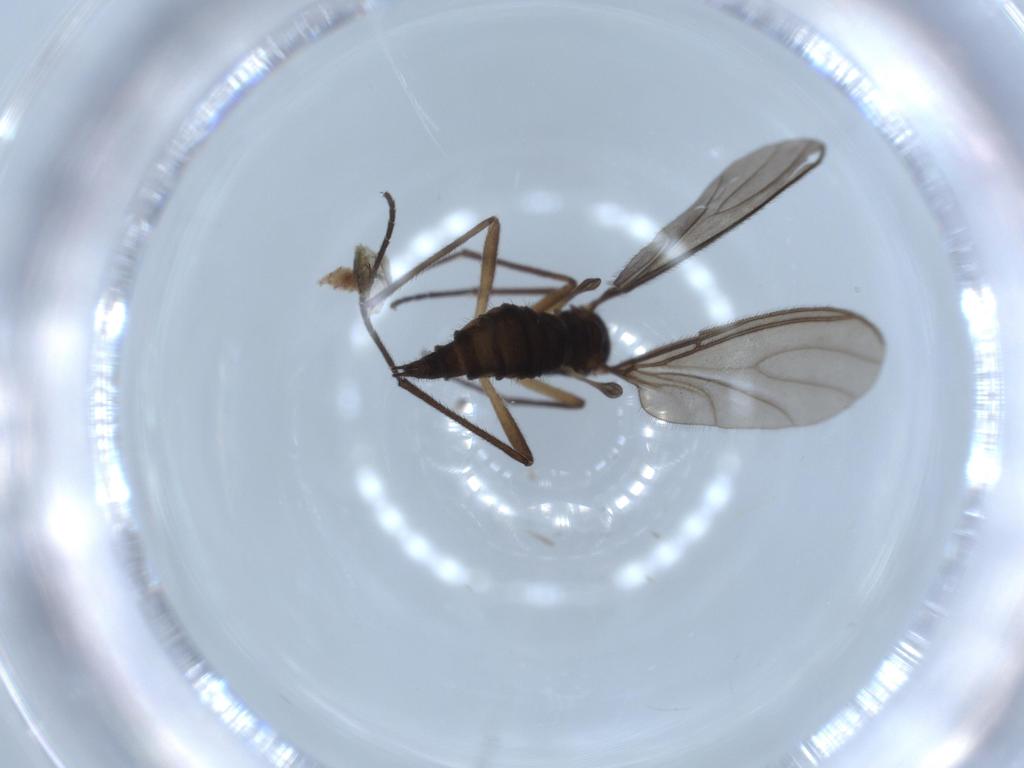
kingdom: Animalia
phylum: Arthropoda
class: Insecta
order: Diptera
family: Sciaridae
